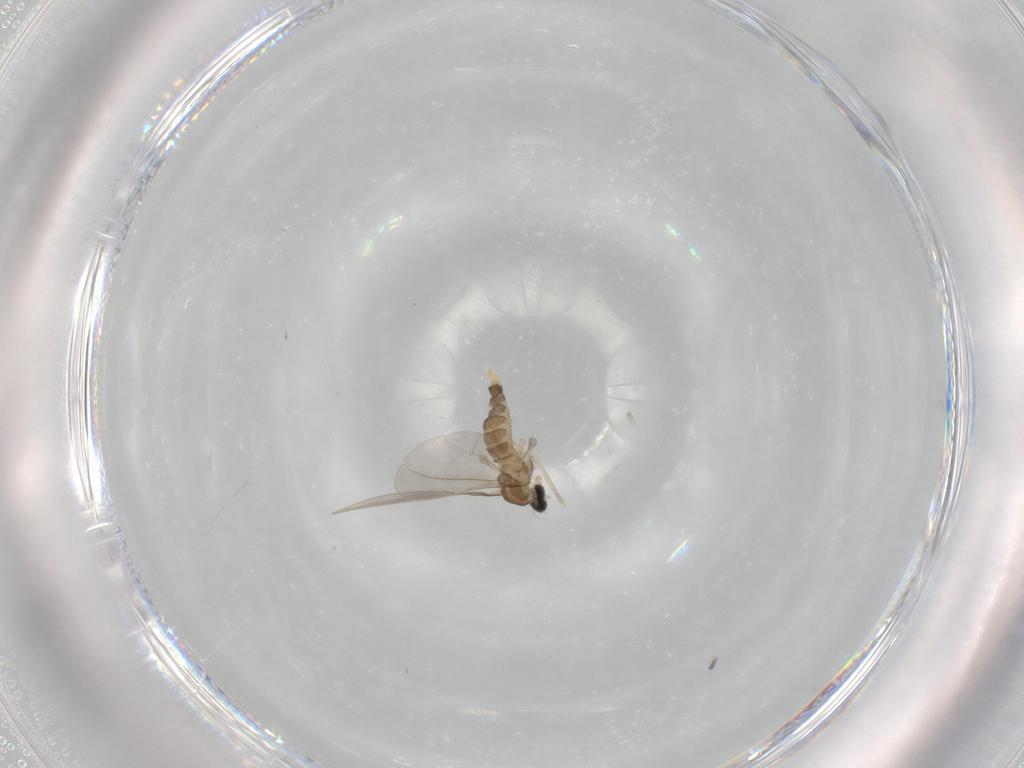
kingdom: Animalia
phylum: Arthropoda
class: Insecta
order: Diptera
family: Cecidomyiidae
